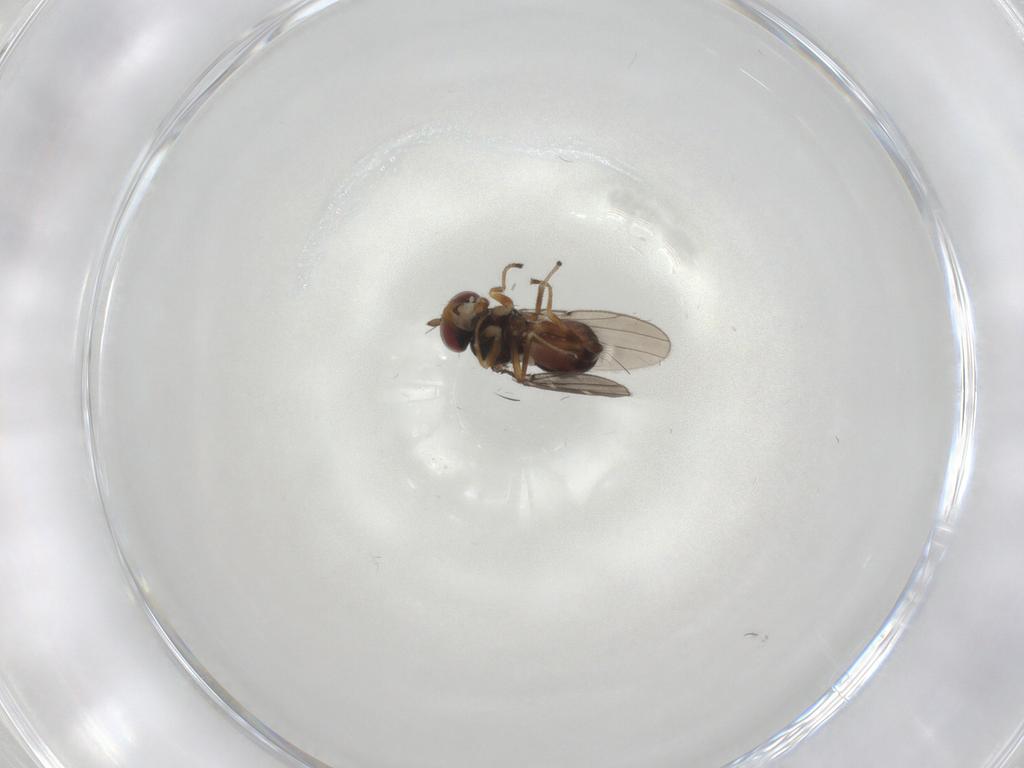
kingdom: Animalia
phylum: Arthropoda
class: Insecta
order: Diptera
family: Ephydridae
